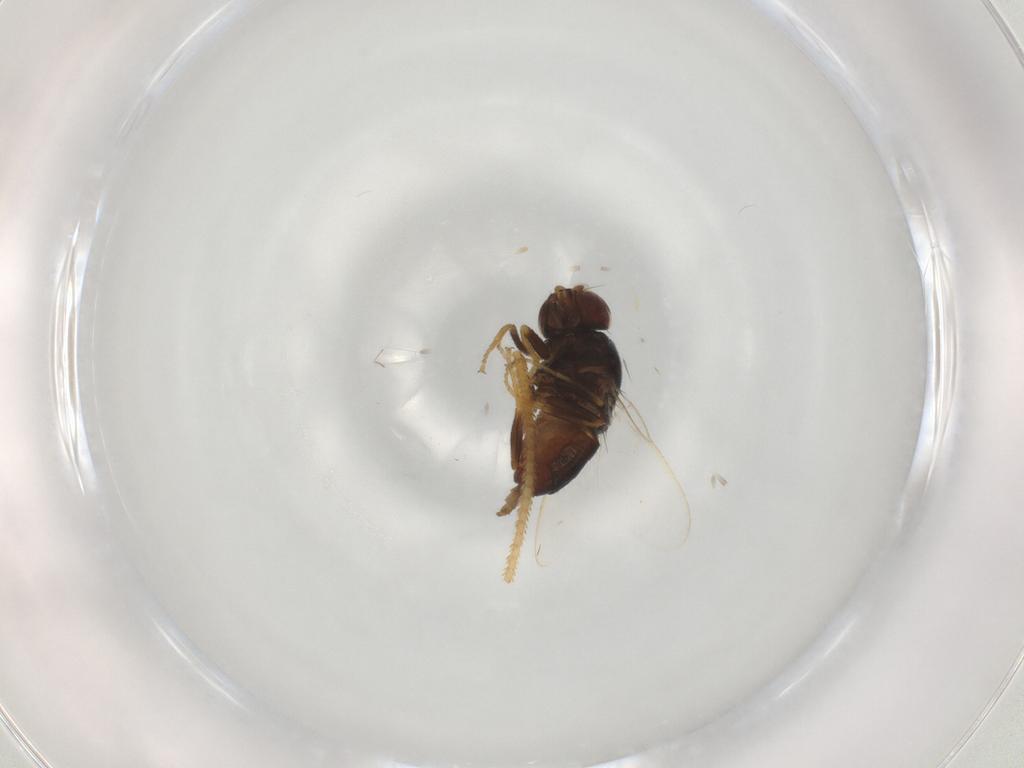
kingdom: Animalia
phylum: Arthropoda
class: Insecta
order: Diptera
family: Chloropidae
